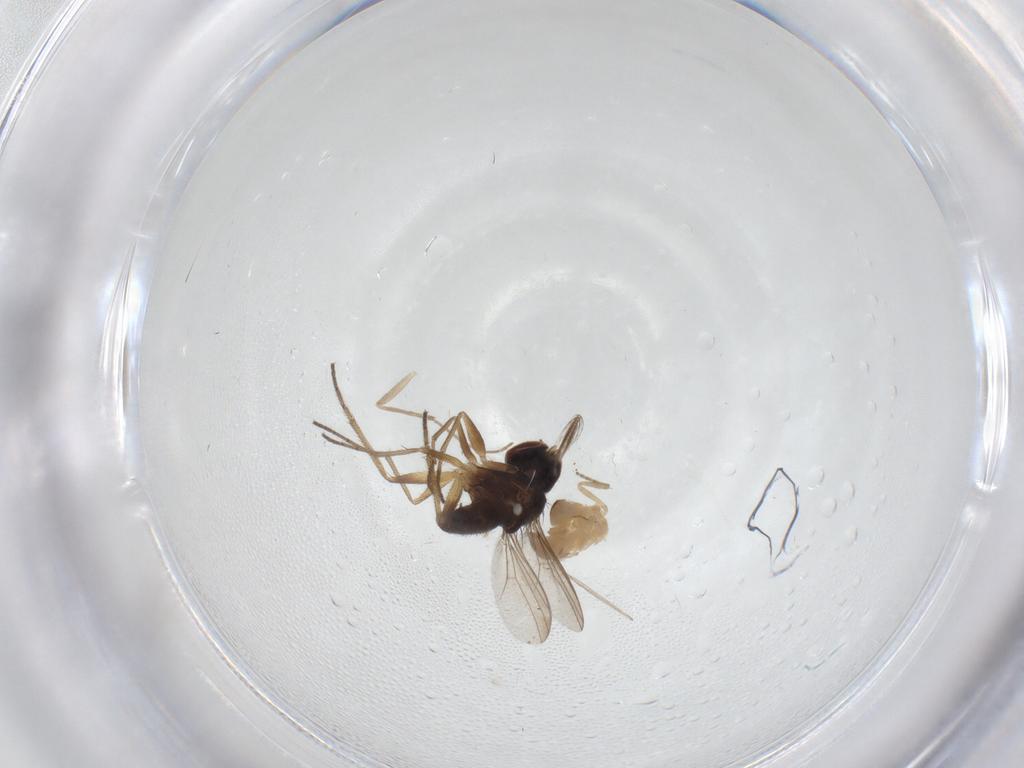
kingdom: Animalia
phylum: Arthropoda
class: Insecta
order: Diptera
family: Dolichopodidae
